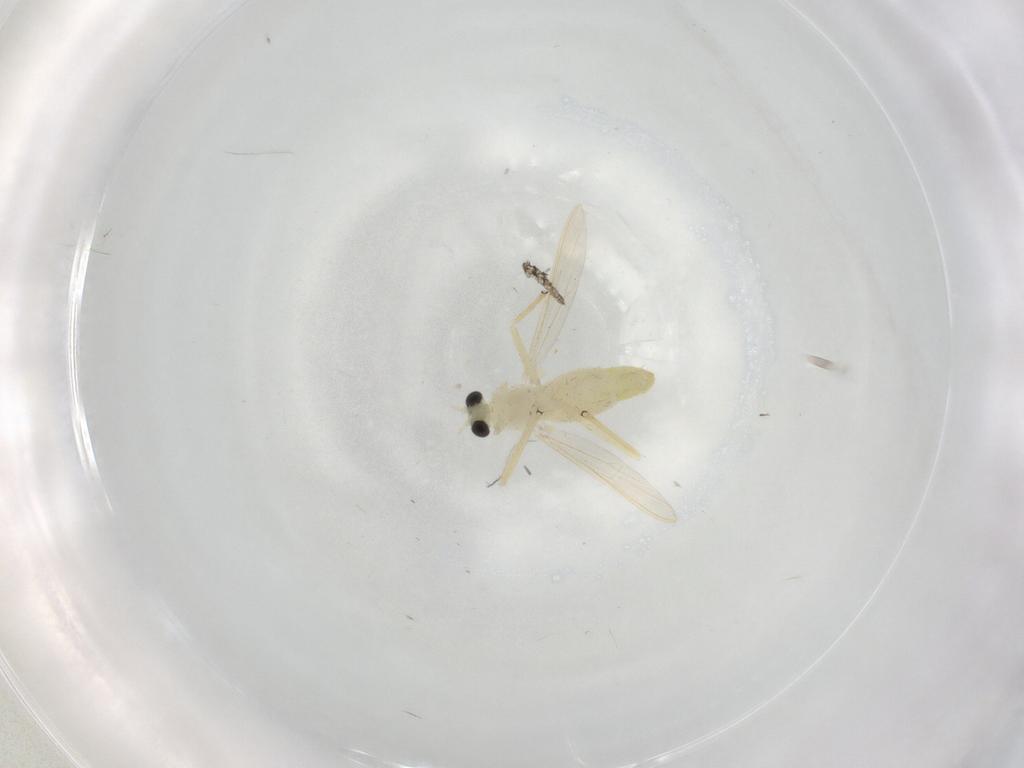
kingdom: Animalia
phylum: Arthropoda
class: Insecta
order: Diptera
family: Chironomidae
